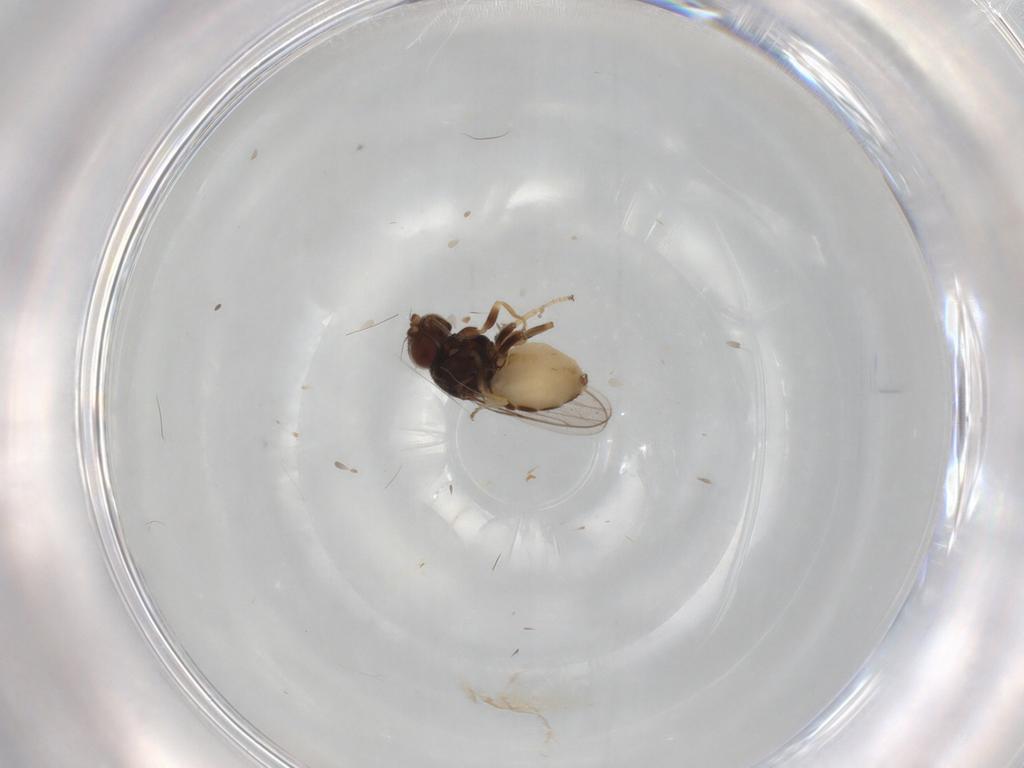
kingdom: Animalia
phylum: Arthropoda
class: Insecta
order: Diptera
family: Chloropidae
